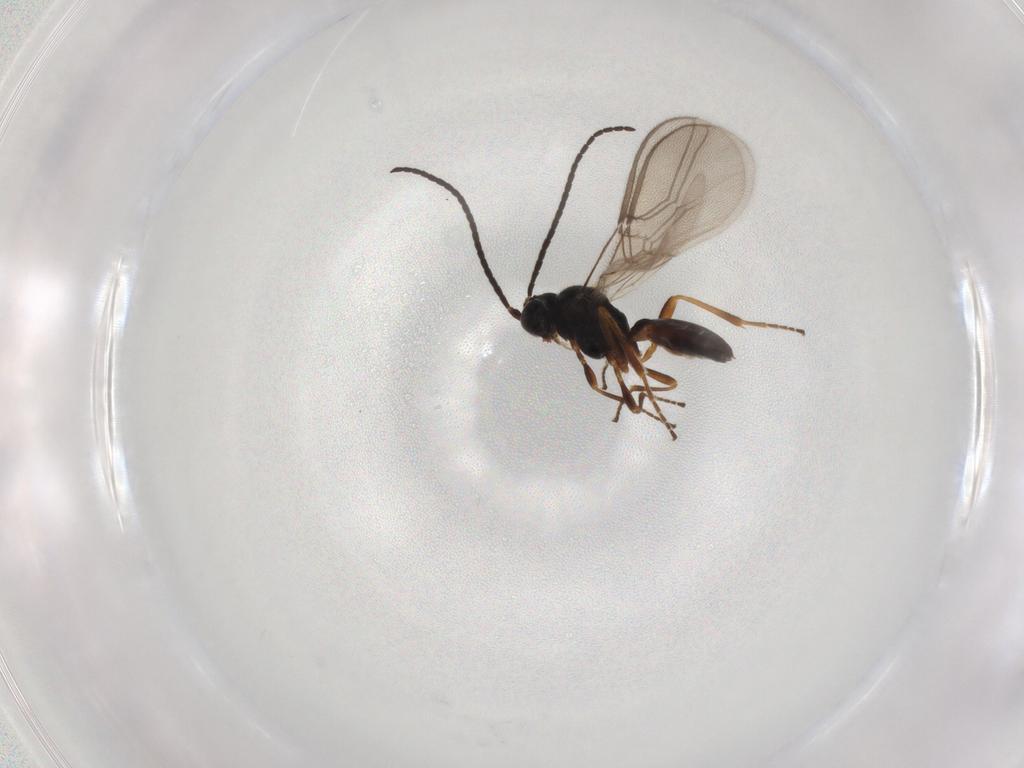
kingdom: Animalia
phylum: Arthropoda
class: Insecta
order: Hymenoptera
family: Braconidae
